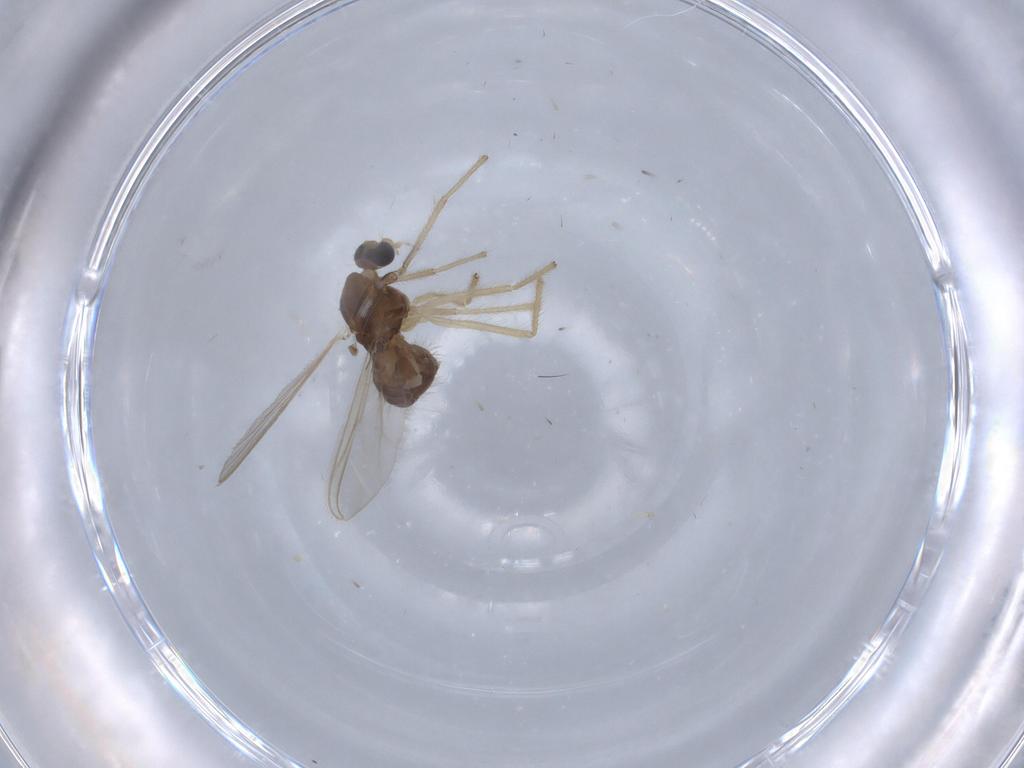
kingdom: Animalia
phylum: Arthropoda
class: Insecta
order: Diptera
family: Chironomidae
